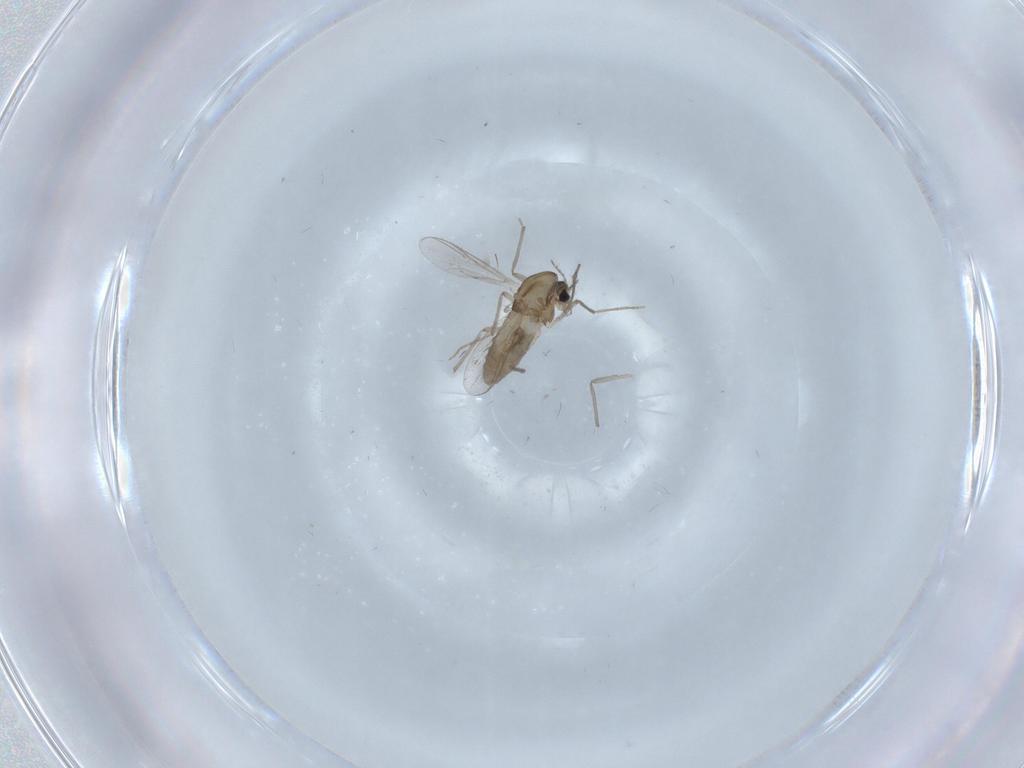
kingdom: Animalia
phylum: Arthropoda
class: Insecta
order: Diptera
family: Chironomidae
